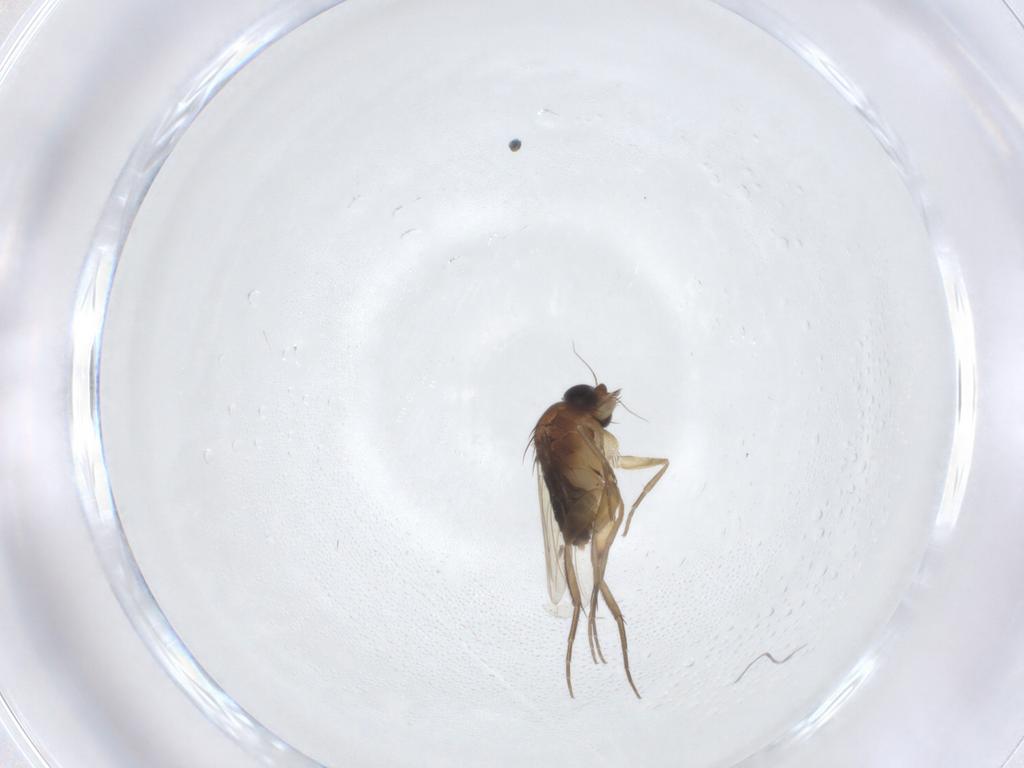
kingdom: Animalia
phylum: Arthropoda
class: Insecta
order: Diptera
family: Phoridae
